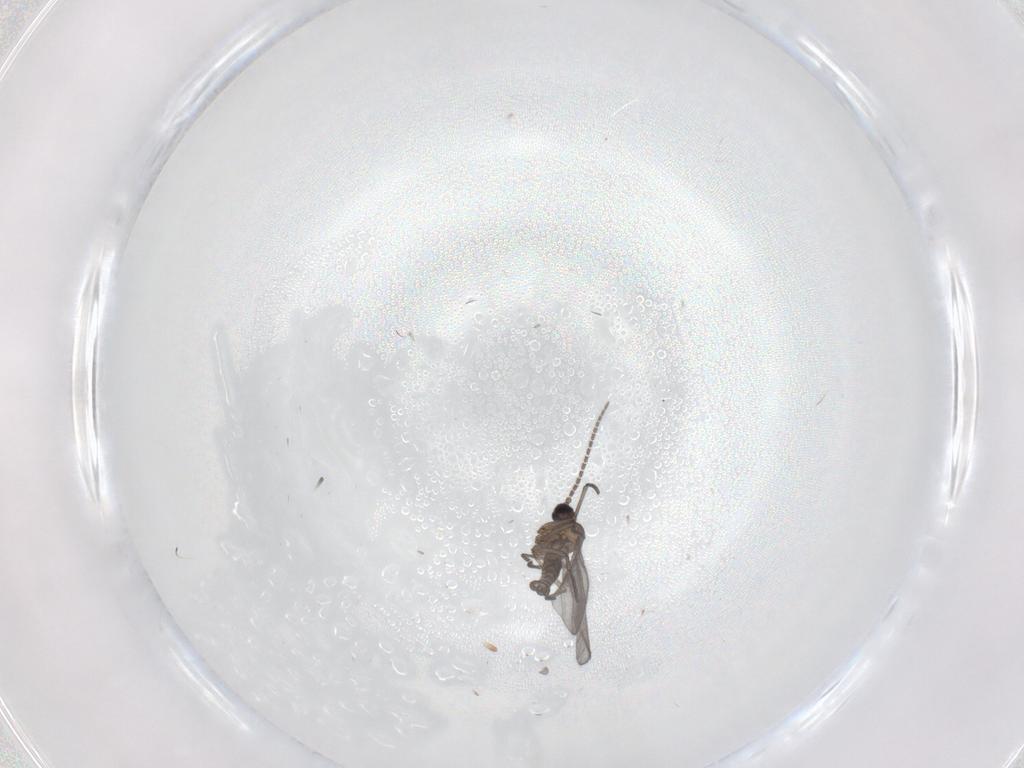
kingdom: Animalia
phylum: Arthropoda
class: Insecta
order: Diptera
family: Sciaridae
